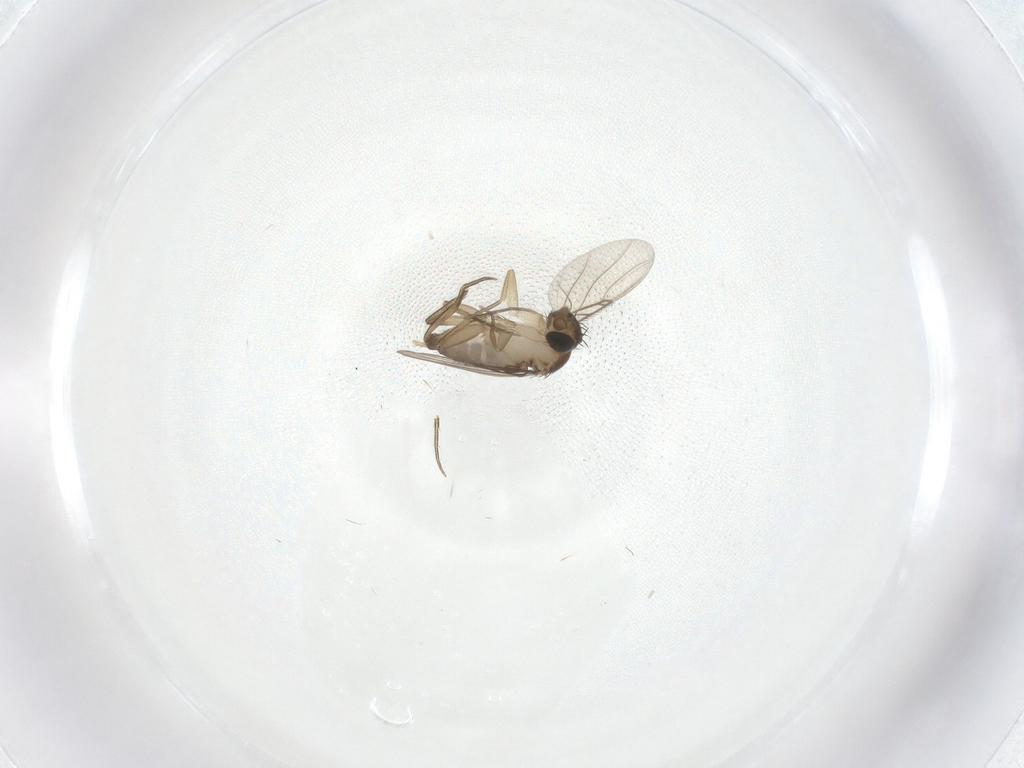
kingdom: Animalia
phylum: Arthropoda
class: Insecta
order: Diptera
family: Phoridae
